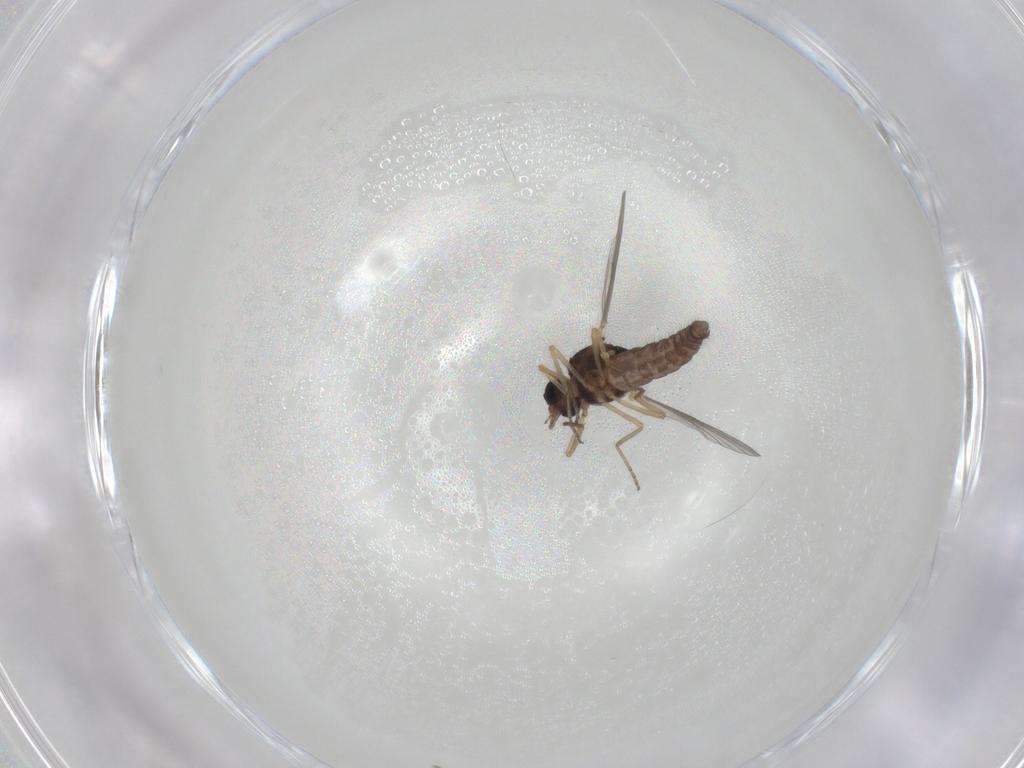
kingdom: Animalia
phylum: Arthropoda
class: Insecta
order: Diptera
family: Ceratopogonidae
